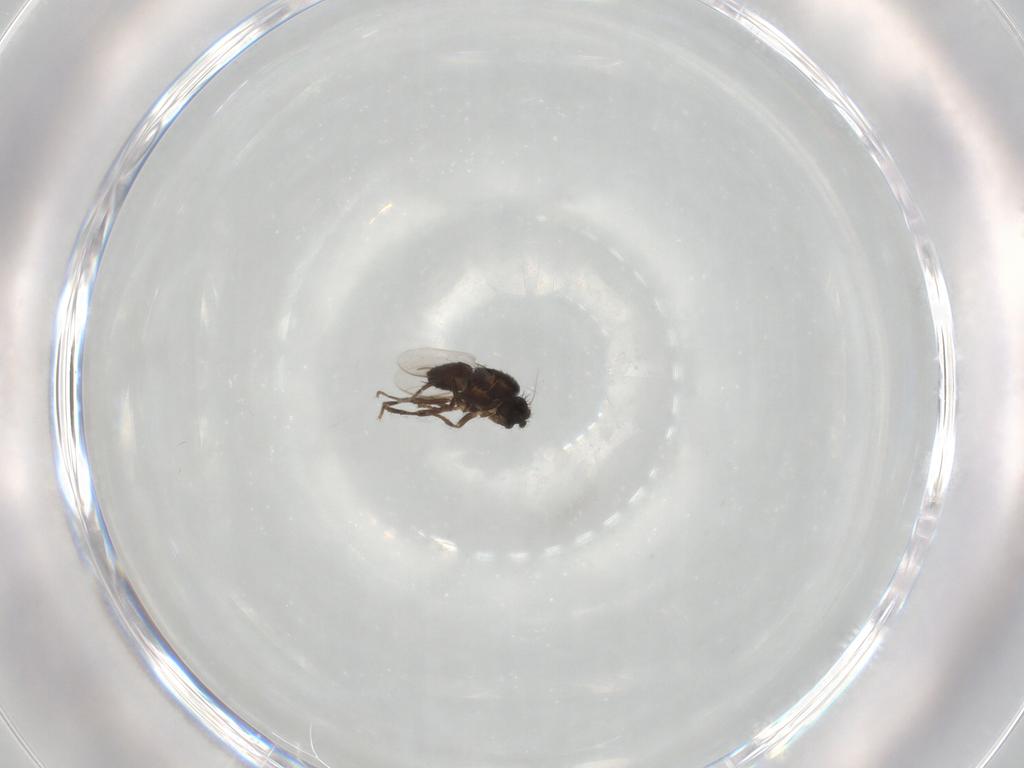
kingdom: Animalia
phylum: Arthropoda
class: Insecta
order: Diptera
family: Sphaeroceridae
